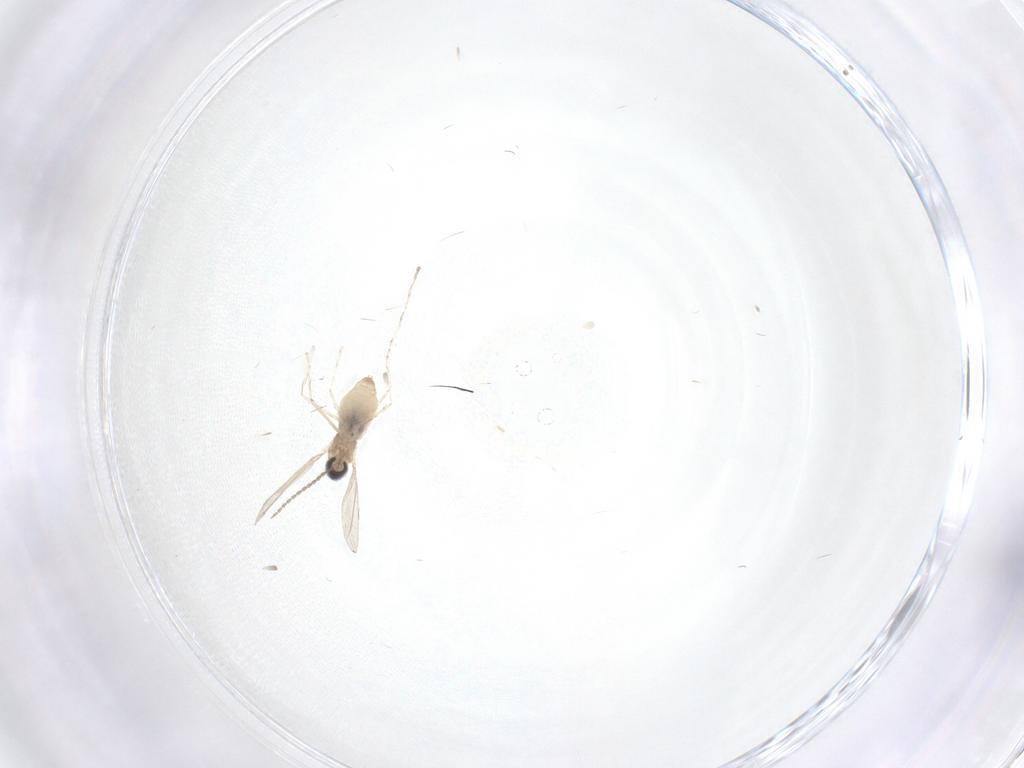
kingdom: Animalia
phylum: Arthropoda
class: Insecta
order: Diptera
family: Cecidomyiidae
